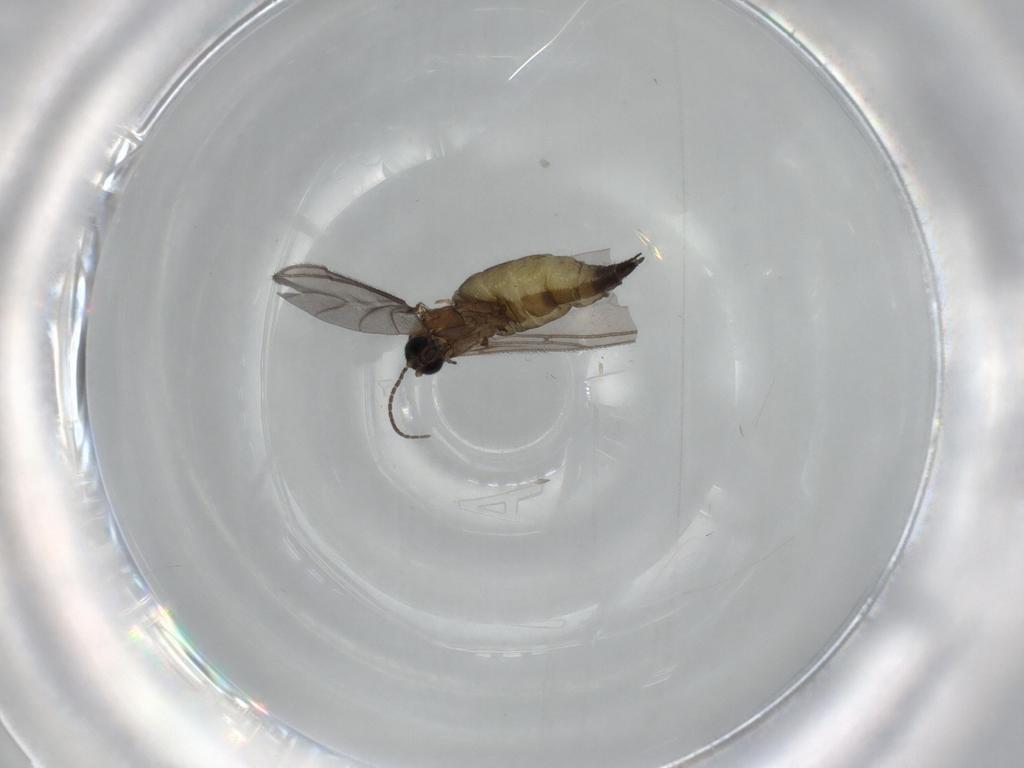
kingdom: Animalia
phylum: Arthropoda
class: Insecta
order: Diptera
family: Sciaridae
